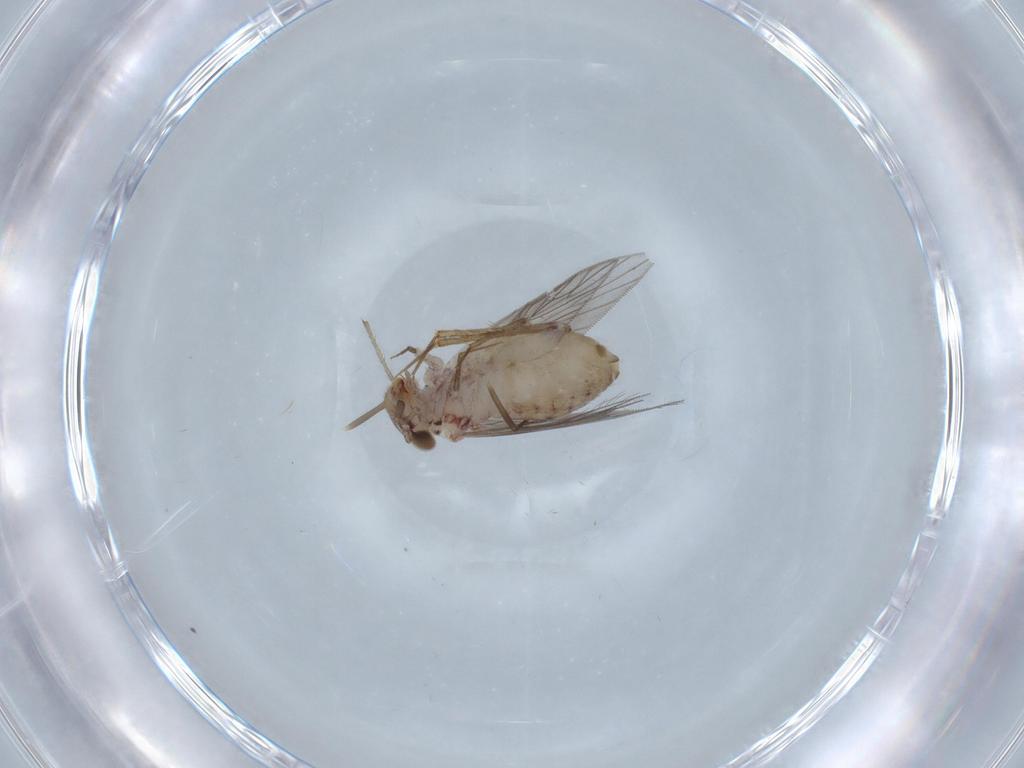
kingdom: Animalia
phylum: Arthropoda
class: Insecta
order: Psocodea
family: Lepidopsocidae
